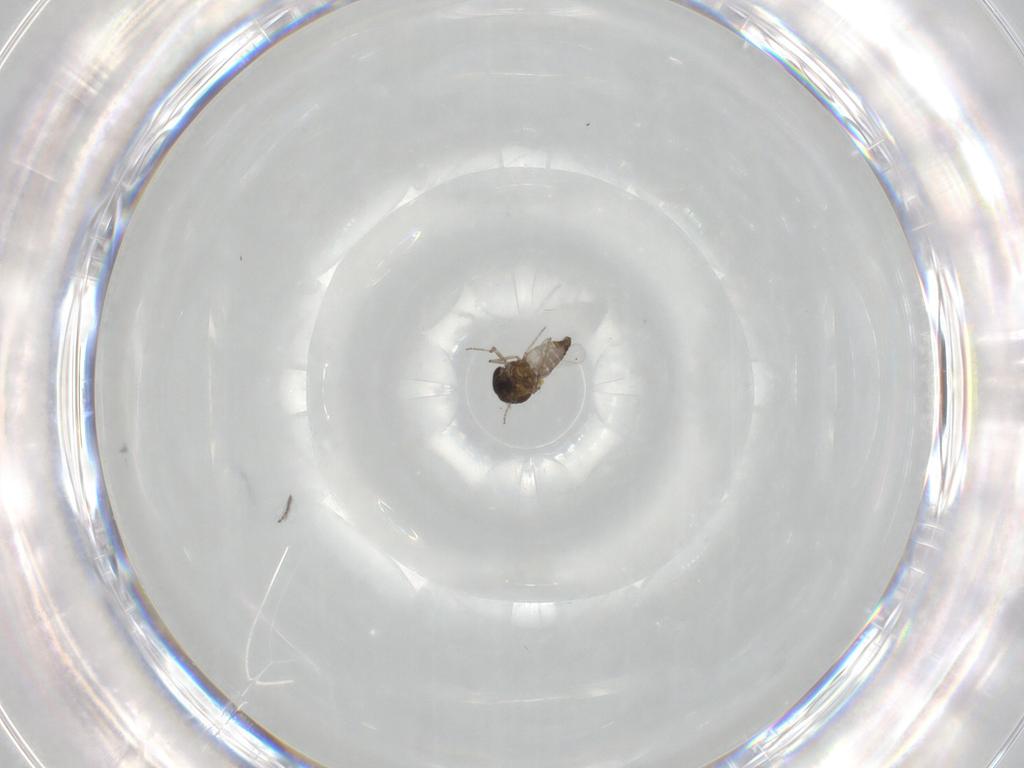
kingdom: Animalia
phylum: Arthropoda
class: Insecta
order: Diptera
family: Ceratopogonidae
